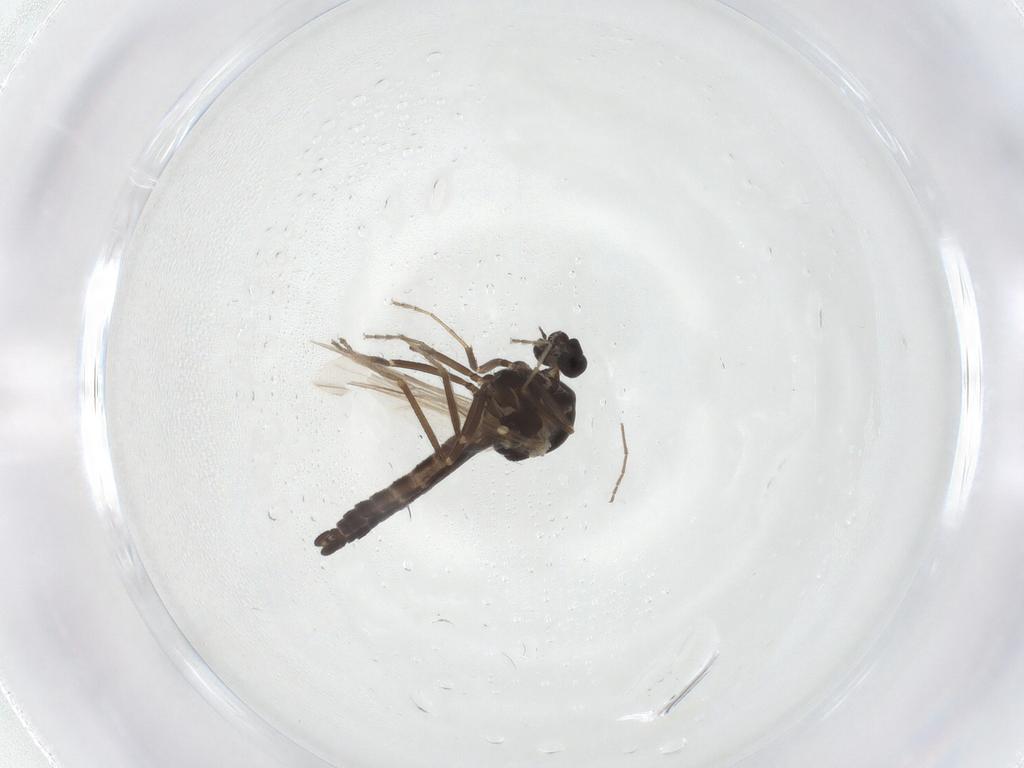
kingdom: Animalia
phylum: Arthropoda
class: Insecta
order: Diptera
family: Ceratopogonidae
